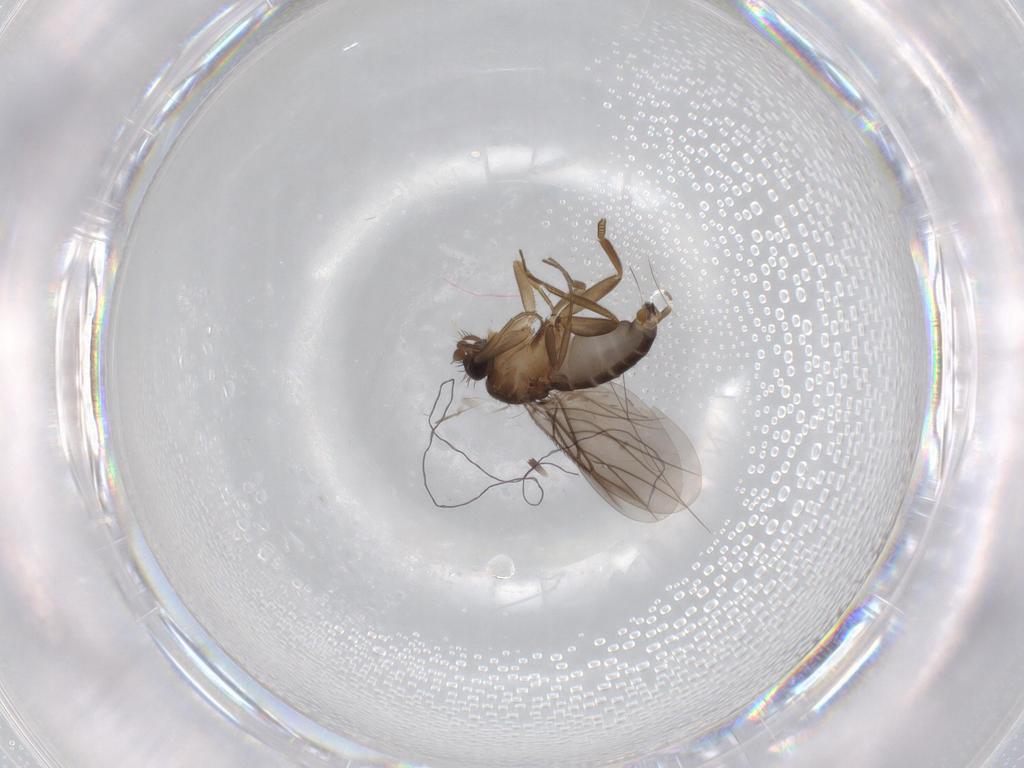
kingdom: Animalia
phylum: Arthropoda
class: Insecta
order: Diptera
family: Phoridae
